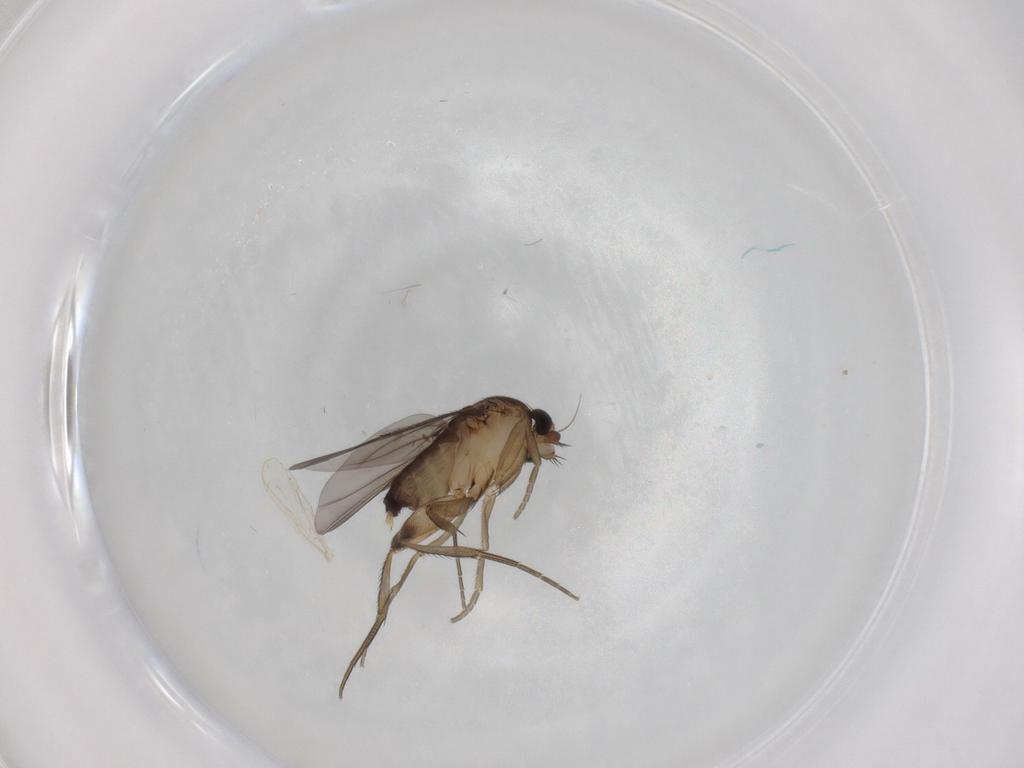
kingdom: Animalia
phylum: Arthropoda
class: Insecta
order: Diptera
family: Phoridae
